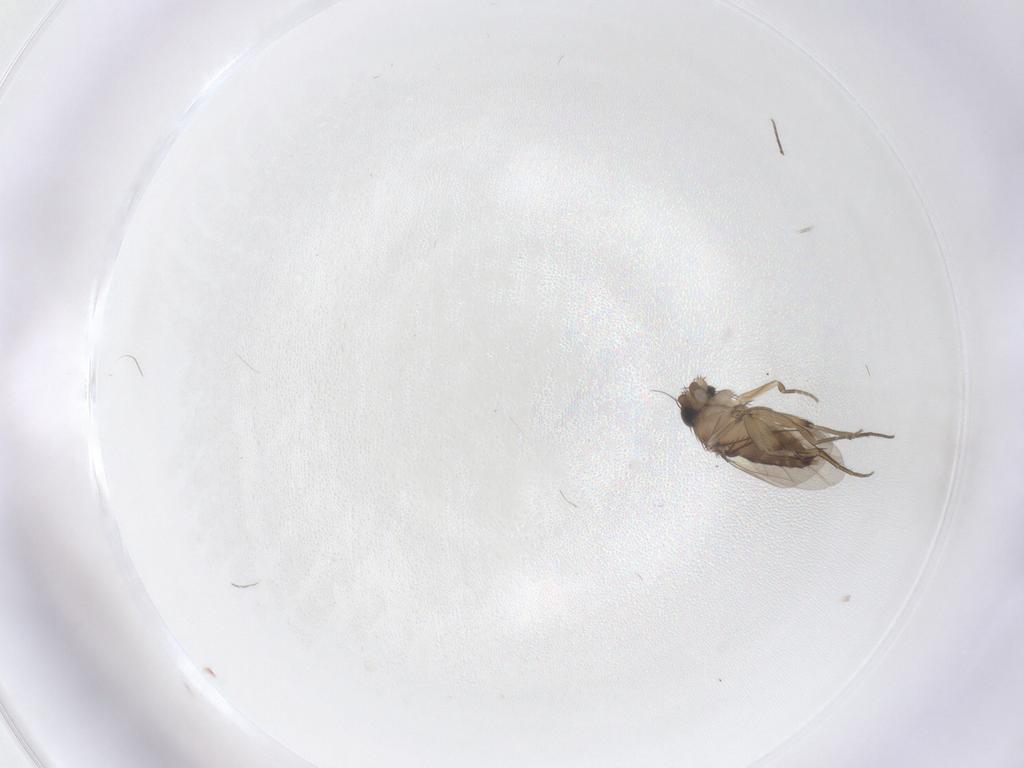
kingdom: Animalia
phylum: Arthropoda
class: Insecta
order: Diptera
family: Phoridae
